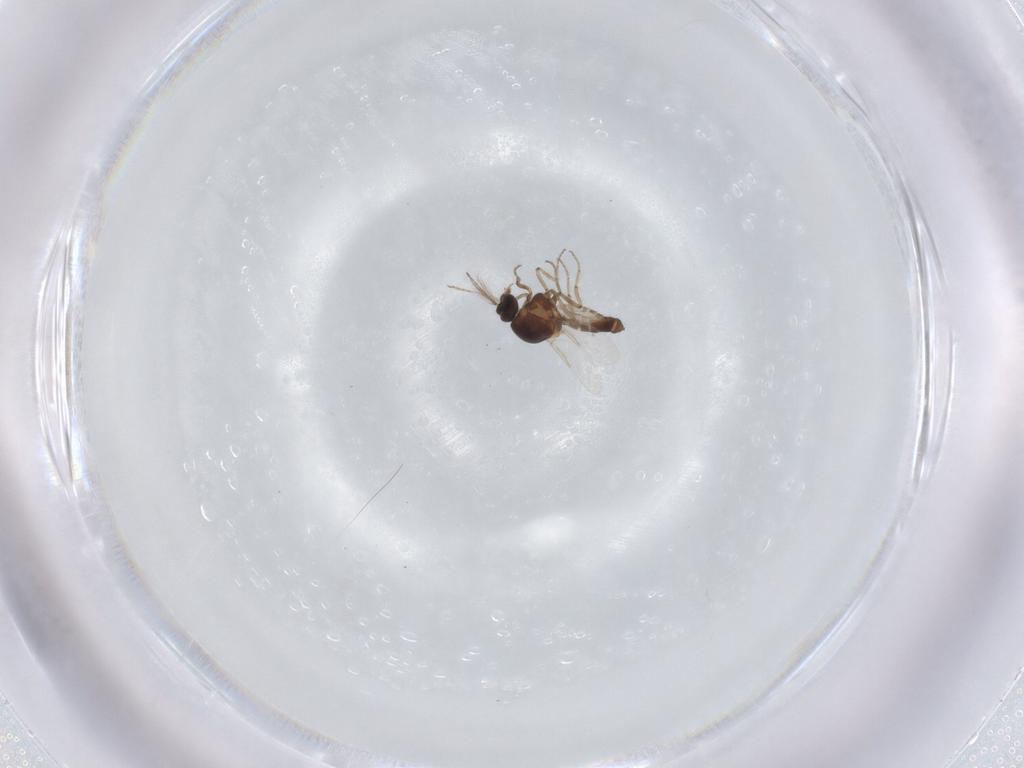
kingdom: Animalia
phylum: Arthropoda
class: Insecta
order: Diptera
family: Ceratopogonidae
